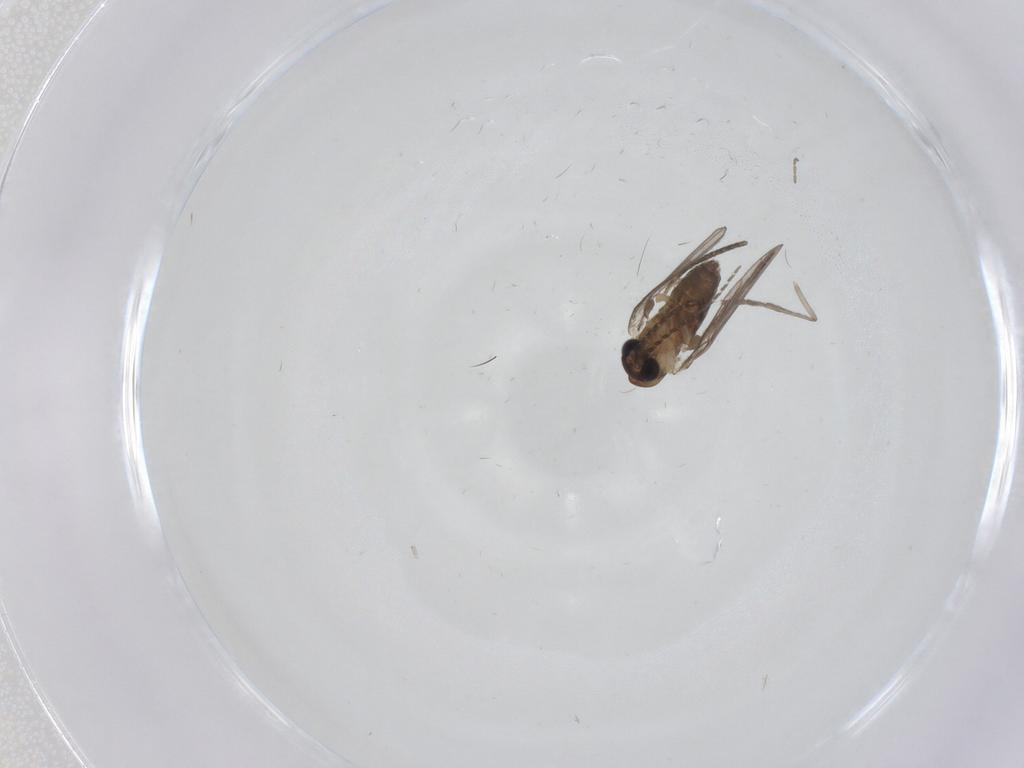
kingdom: Animalia
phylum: Arthropoda
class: Insecta
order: Diptera
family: Psychodidae
